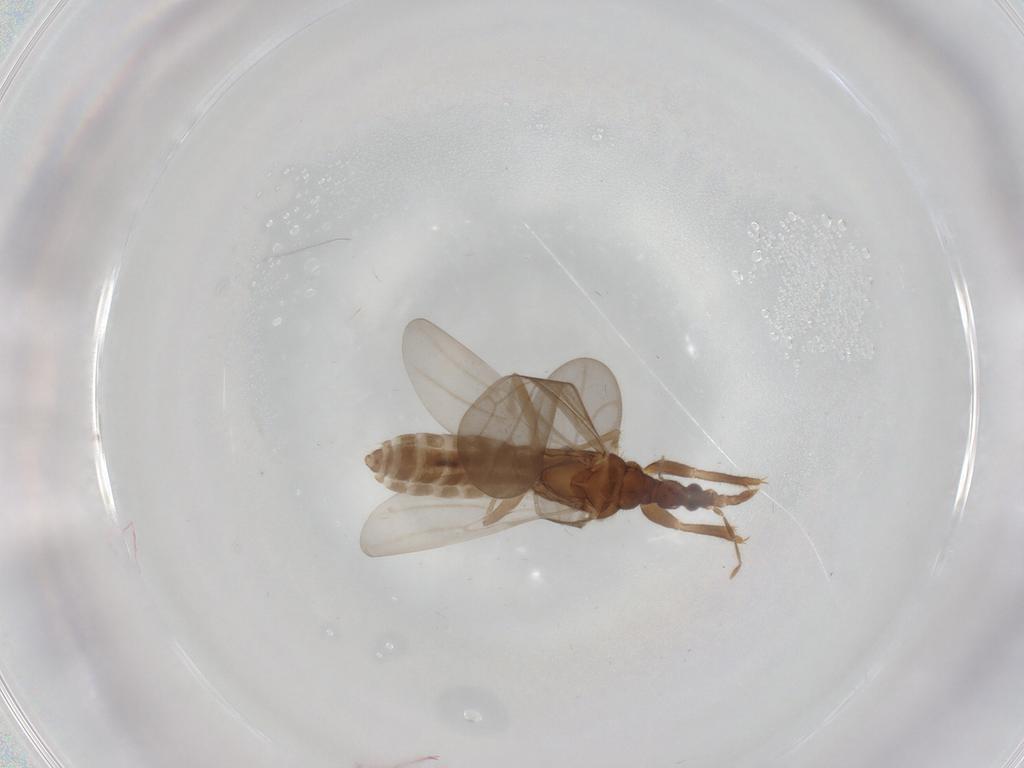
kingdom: Animalia
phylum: Arthropoda
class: Insecta
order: Hemiptera
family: Enicocephalidae
